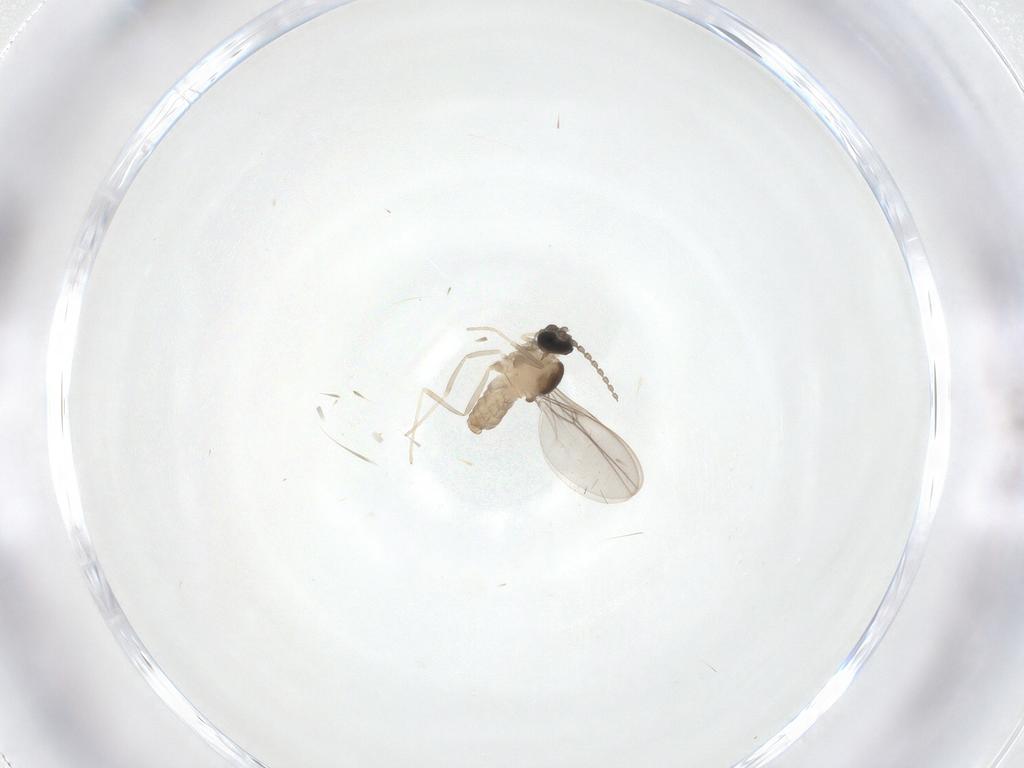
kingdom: Animalia
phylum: Arthropoda
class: Insecta
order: Diptera
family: Cecidomyiidae
